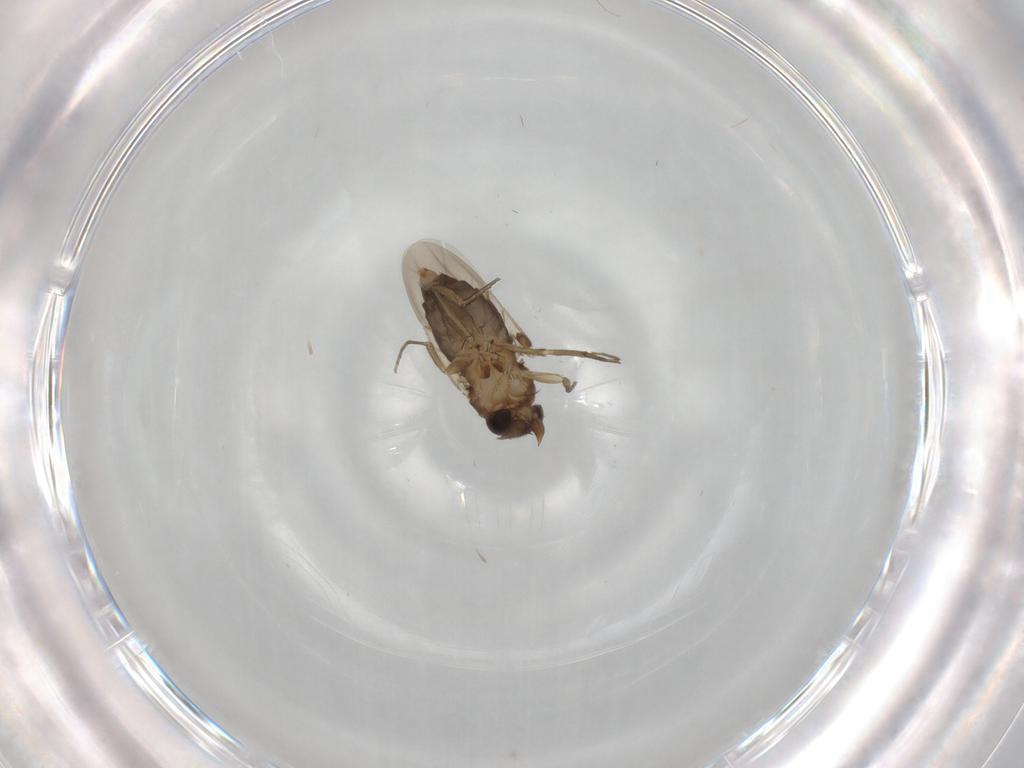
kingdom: Animalia
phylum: Arthropoda
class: Insecta
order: Diptera
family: Phoridae
